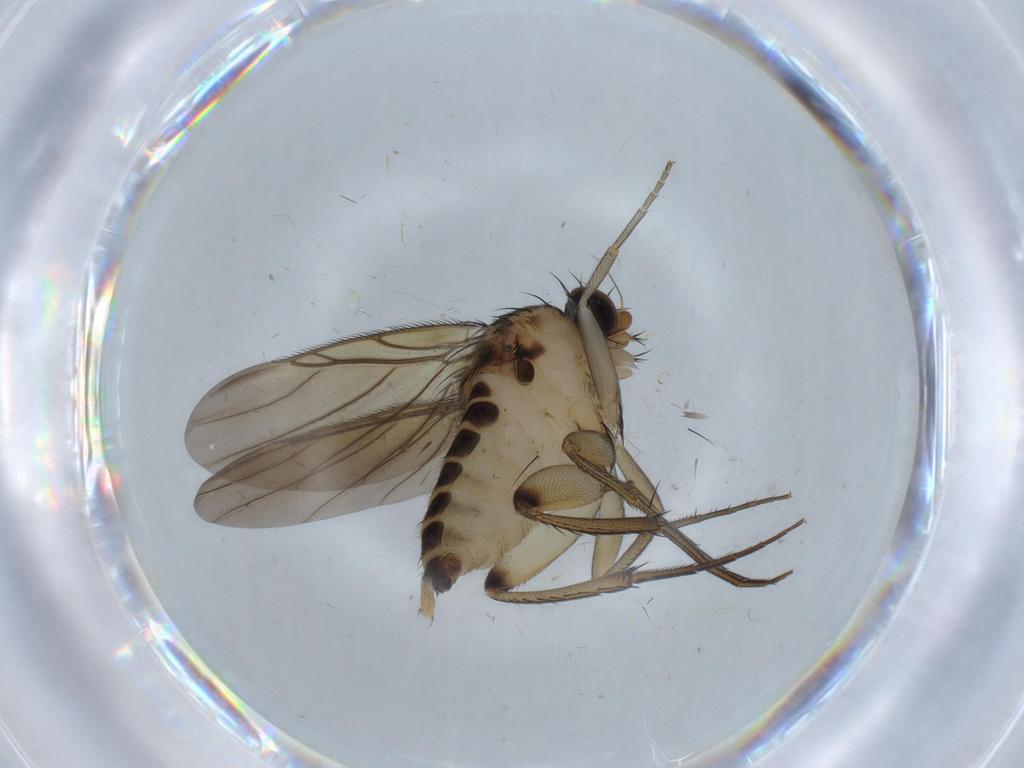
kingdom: Animalia
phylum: Arthropoda
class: Insecta
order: Diptera
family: Phoridae
